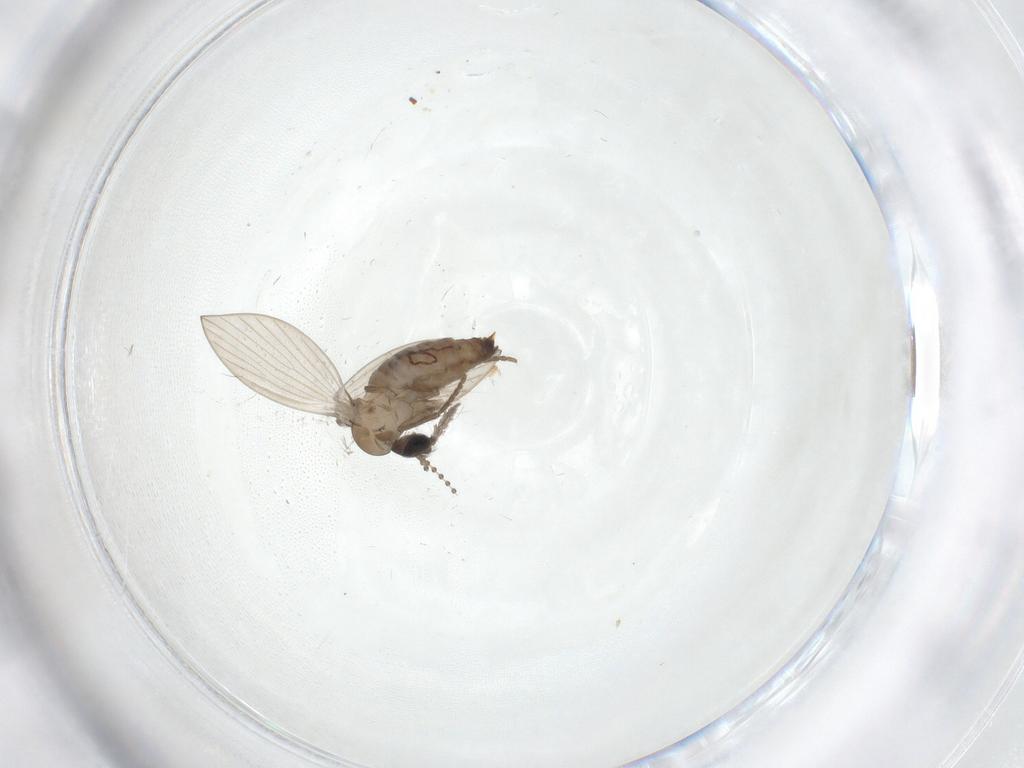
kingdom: Animalia
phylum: Arthropoda
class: Insecta
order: Diptera
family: Psychodidae
